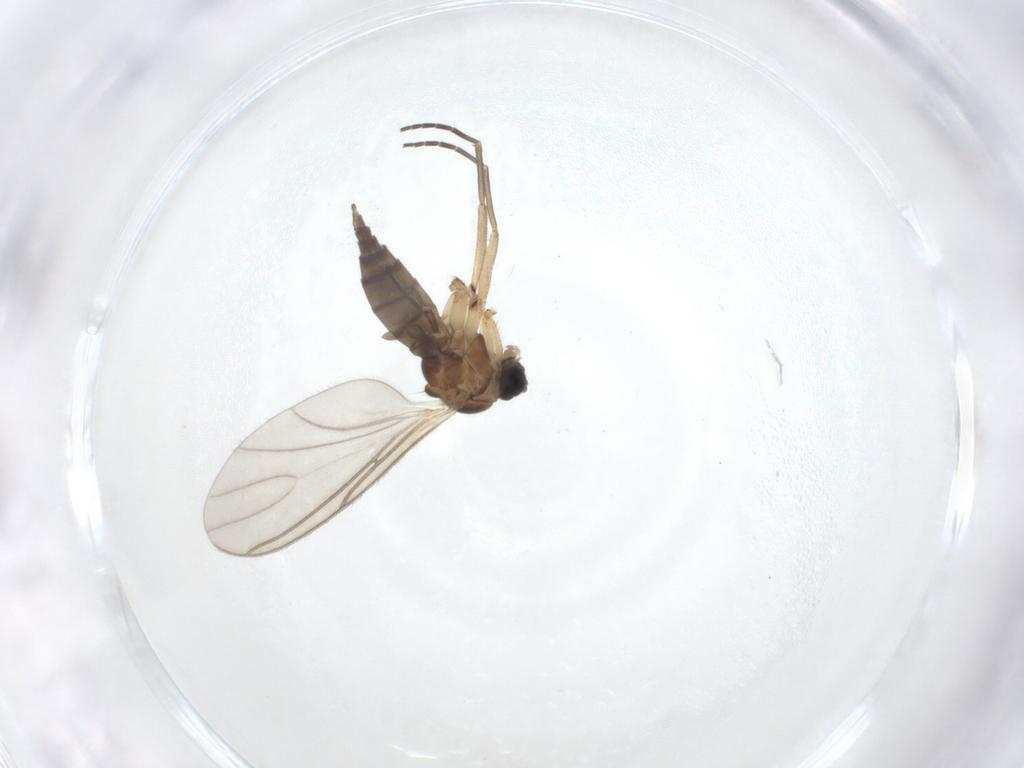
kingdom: Animalia
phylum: Arthropoda
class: Insecta
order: Diptera
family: Sciaridae
